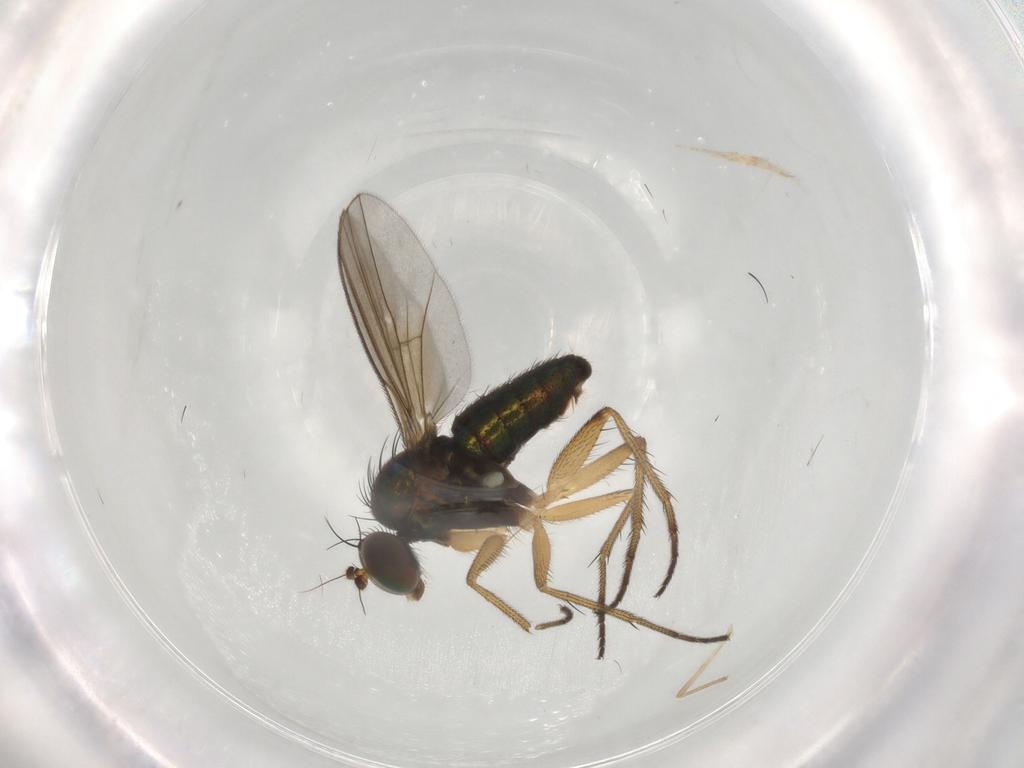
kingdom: Animalia
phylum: Arthropoda
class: Insecta
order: Diptera
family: Dolichopodidae
